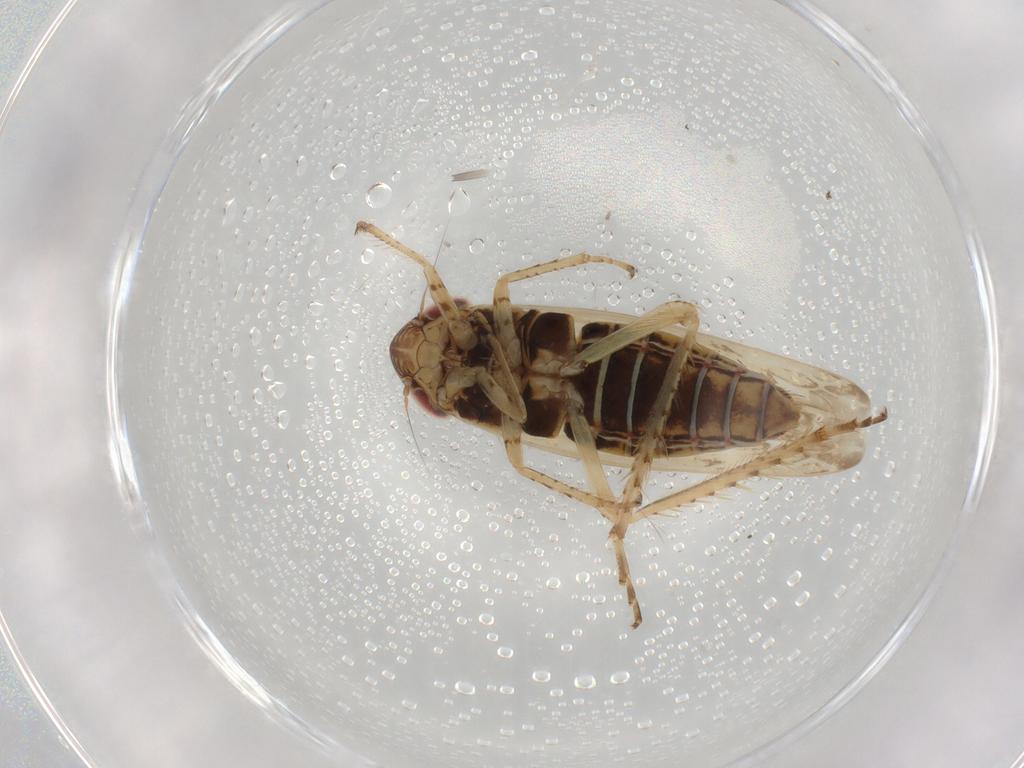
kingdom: Animalia
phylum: Arthropoda
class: Insecta
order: Hemiptera
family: Cicadellidae
